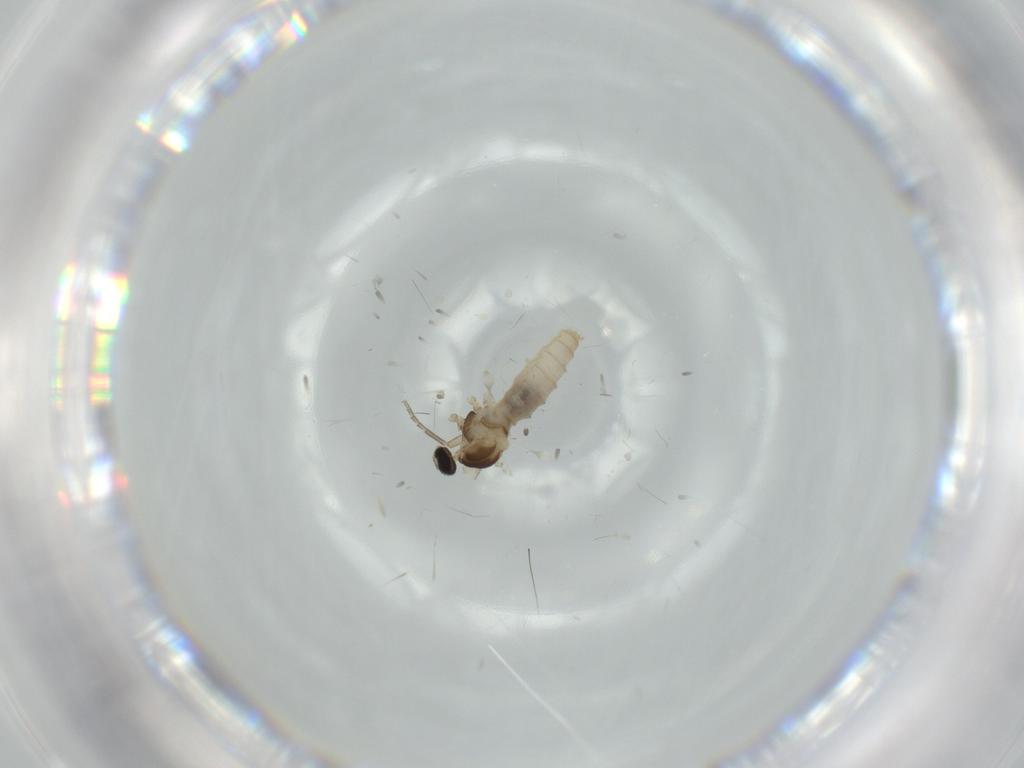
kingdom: Animalia
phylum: Arthropoda
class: Insecta
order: Diptera
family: Cecidomyiidae
